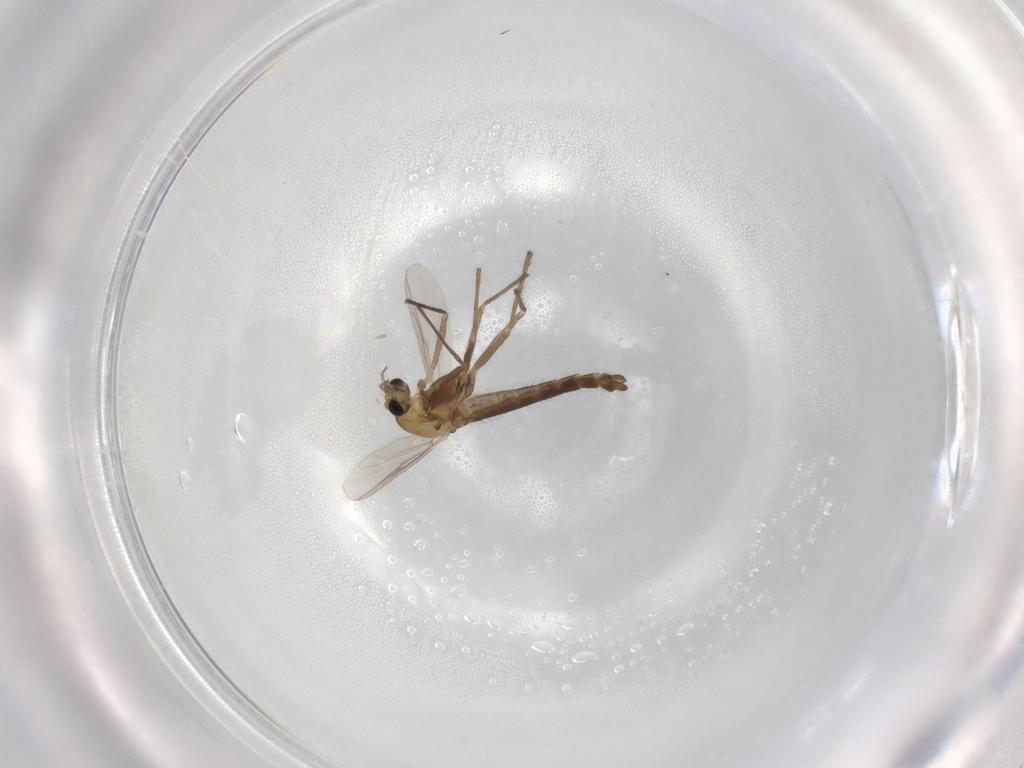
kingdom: Animalia
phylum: Arthropoda
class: Insecta
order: Diptera
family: Chironomidae
